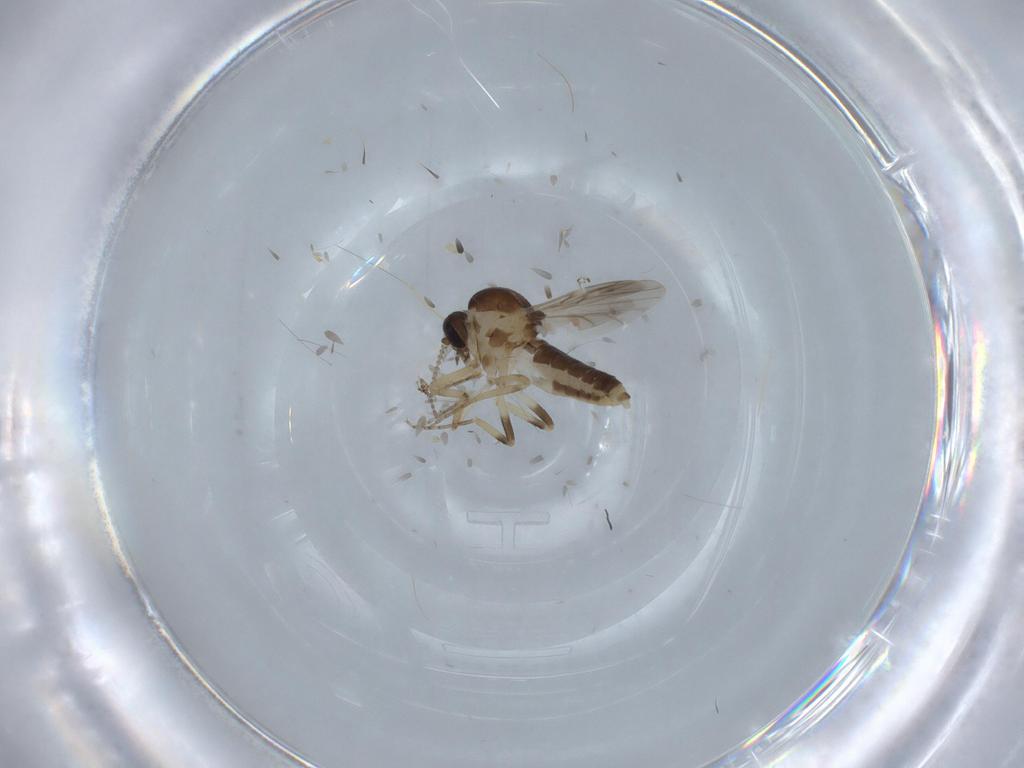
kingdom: Animalia
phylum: Arthropoda
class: Insecta
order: Diptera
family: Ceratopogonidae
